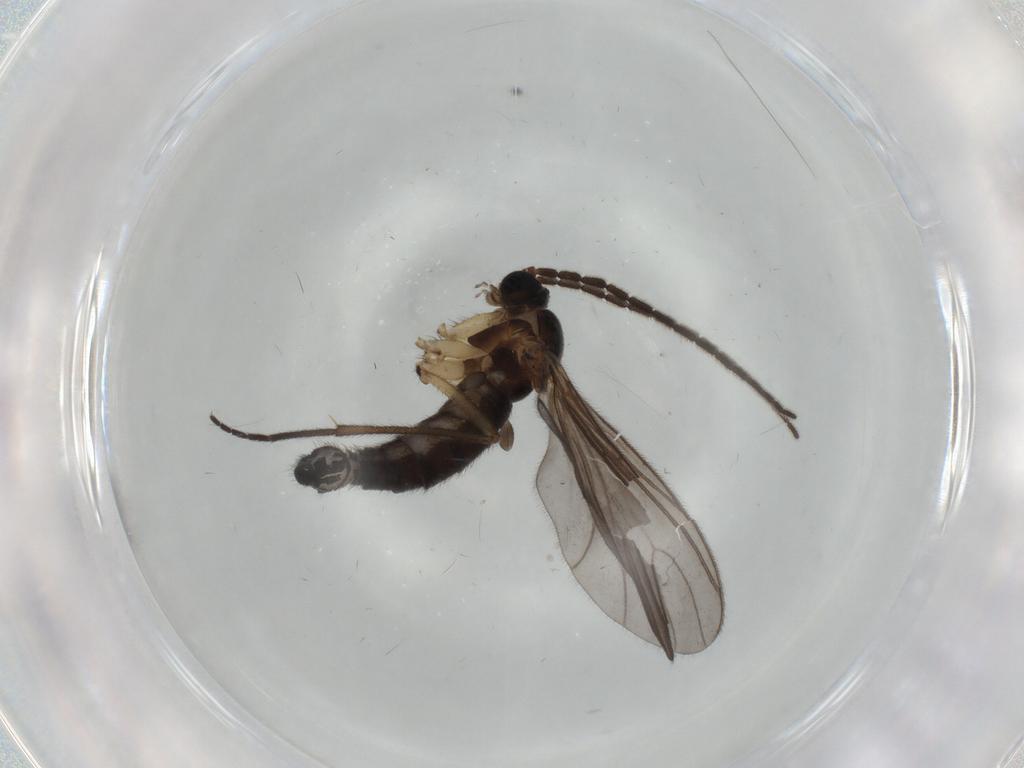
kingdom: Animalia
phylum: Arthropoda
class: Insecta
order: Diptera
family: Sciaridae
